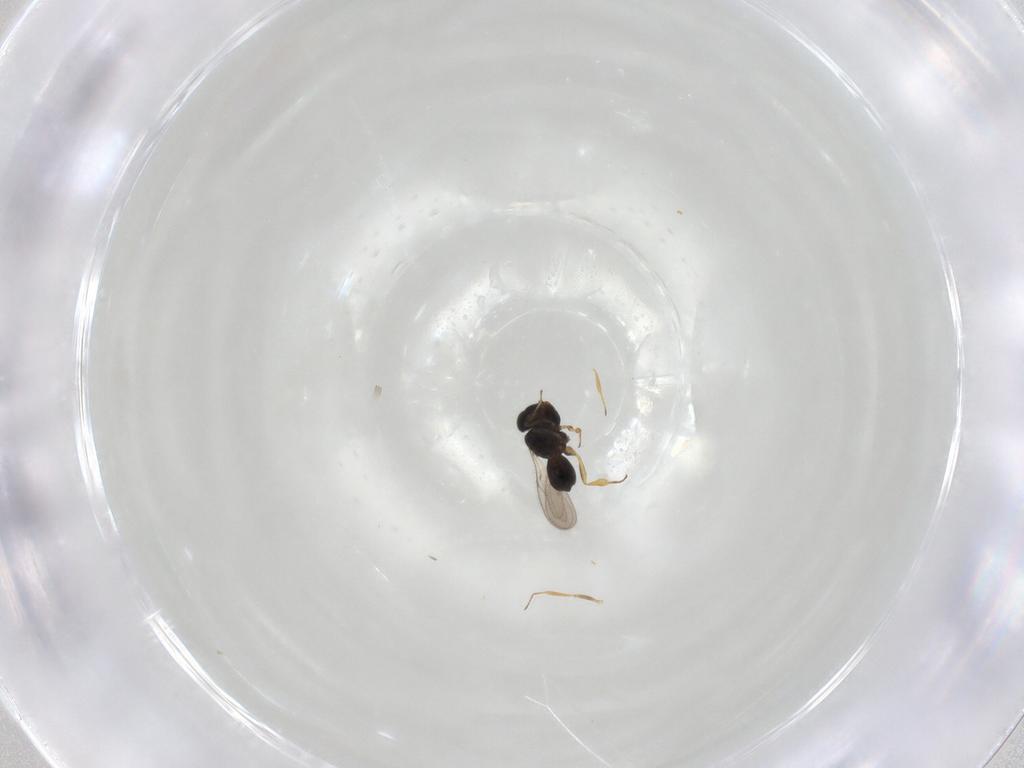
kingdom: Animalia
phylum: Arthropoda
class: Insecta
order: Hymenoptera
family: Scelionidae
